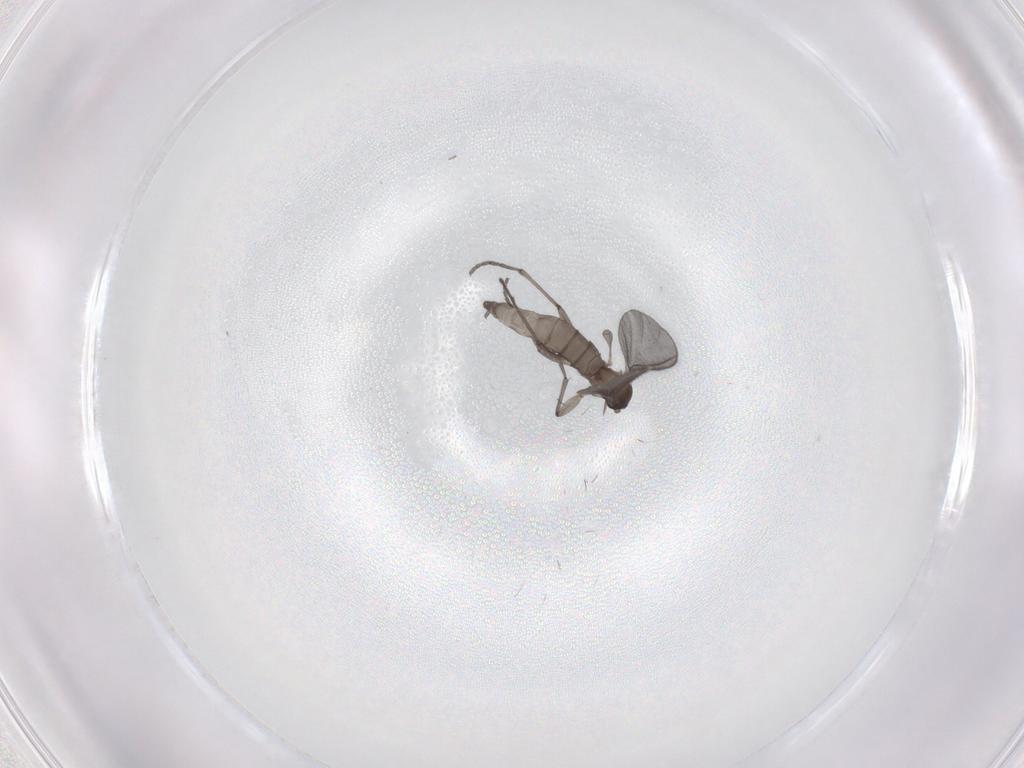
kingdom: Animalia
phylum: Arthropoda
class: Insecta
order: Diptera
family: Sciaridae
